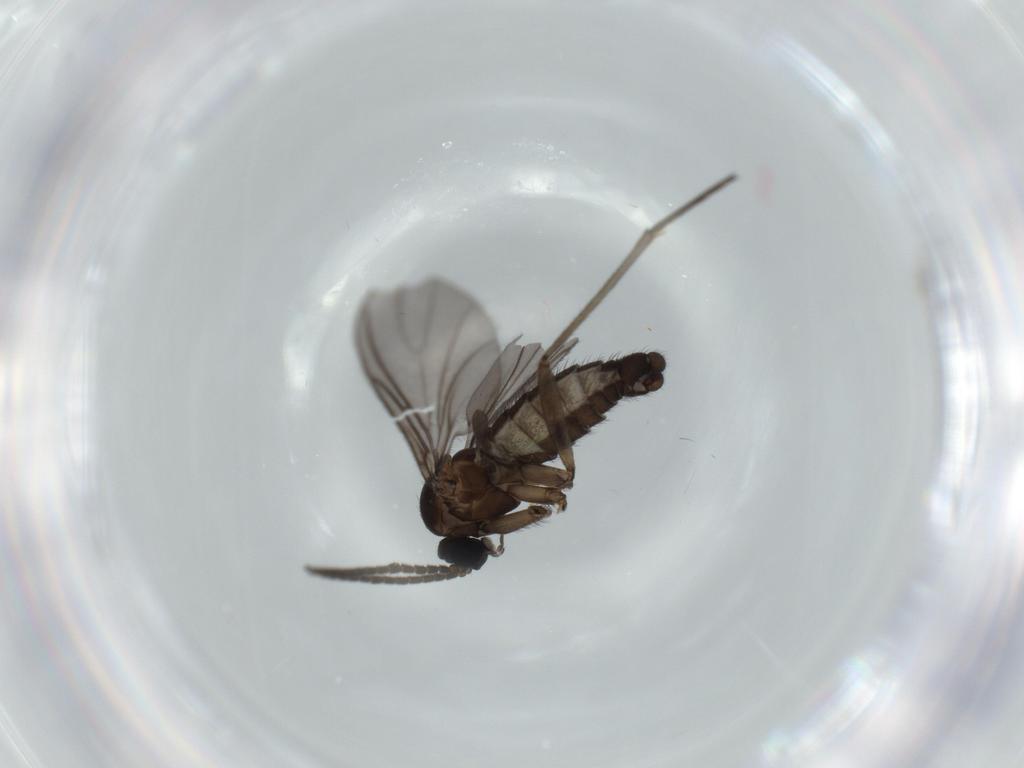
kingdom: Animalia
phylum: Arthropoda
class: Insecta
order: Diptera
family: Sciaridae
